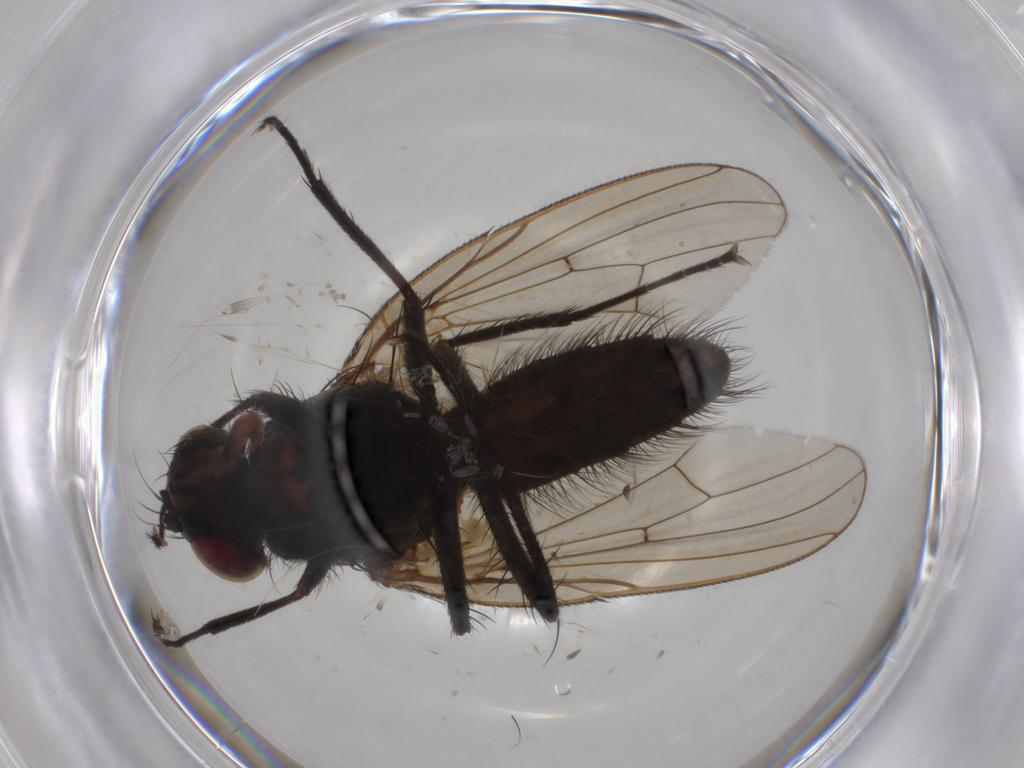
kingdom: Animalia
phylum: Arthropoda
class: Insecta
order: Diptera
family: Anthomyiidae
